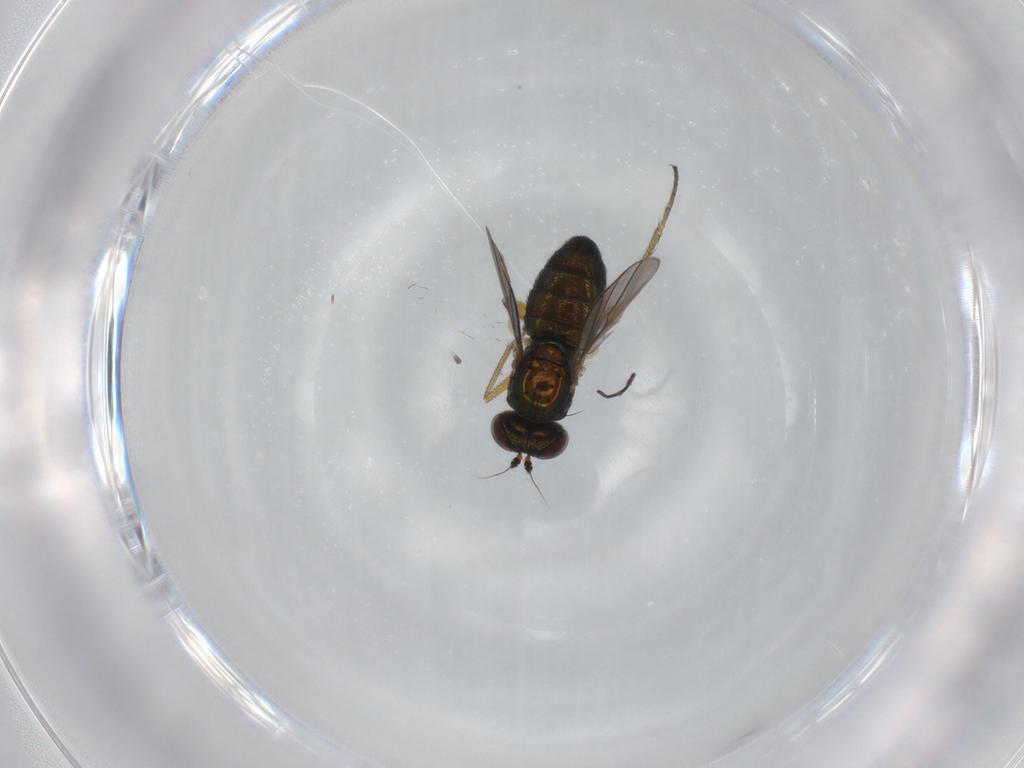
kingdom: Animalia
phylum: Arthropoda
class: Insecta
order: Diptera
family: Dolichopodidae
